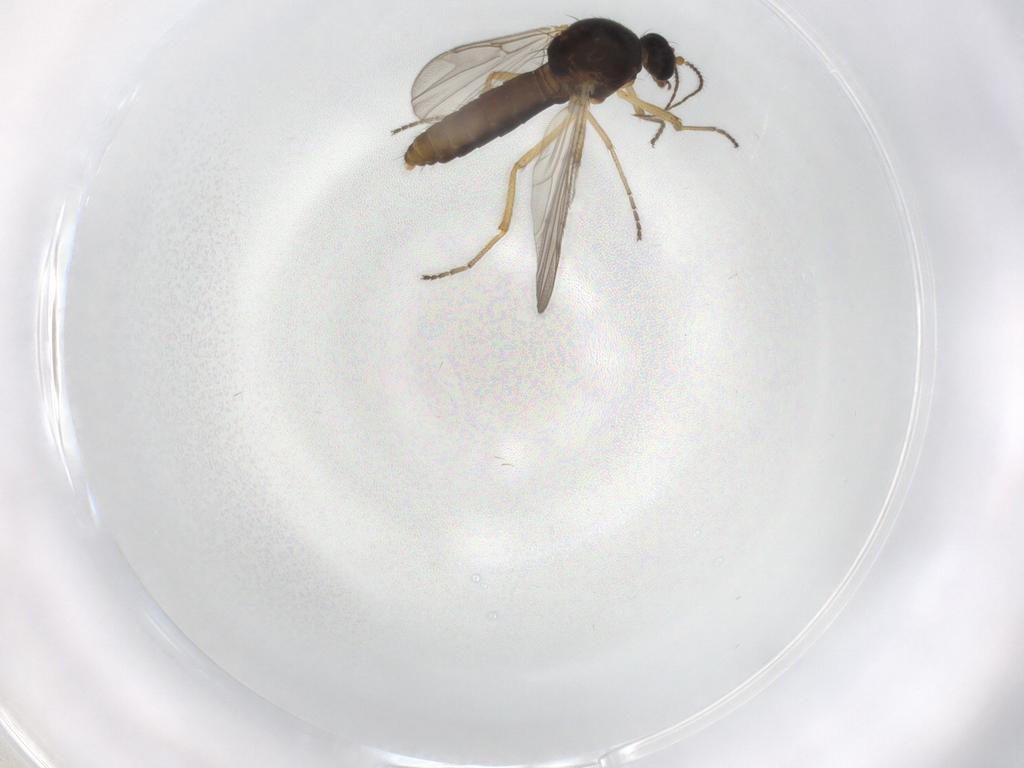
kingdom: Animalia
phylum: Arthropoda
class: Insecta
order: Diptera
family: Ceratopogonidae
